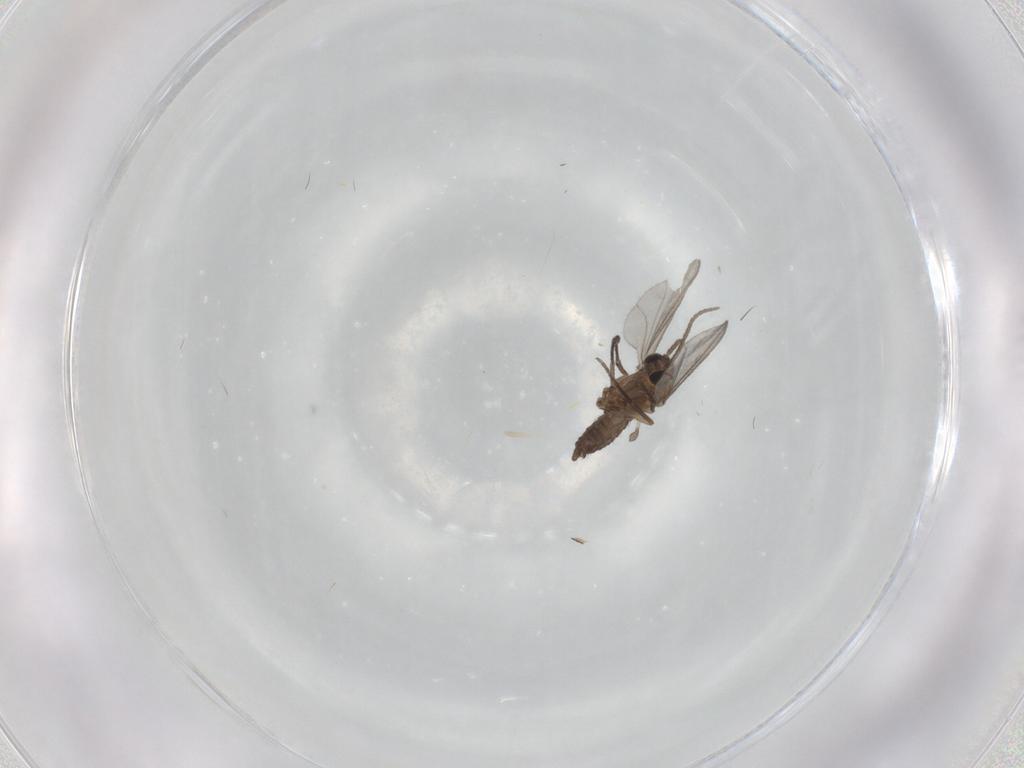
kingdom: Animalia
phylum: Arthropoda
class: Insecta
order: Diptera
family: Sciaridae
